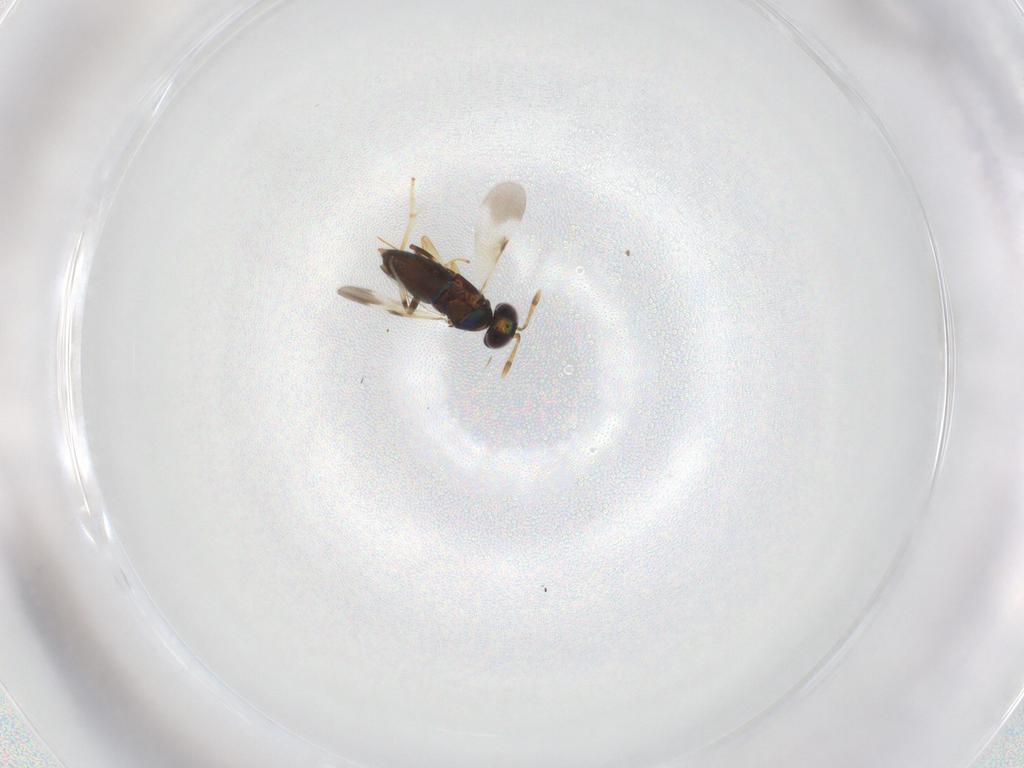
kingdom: Animalia
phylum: Arthropoda
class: Insecta
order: Hymenoptera
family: Encyrtidae
